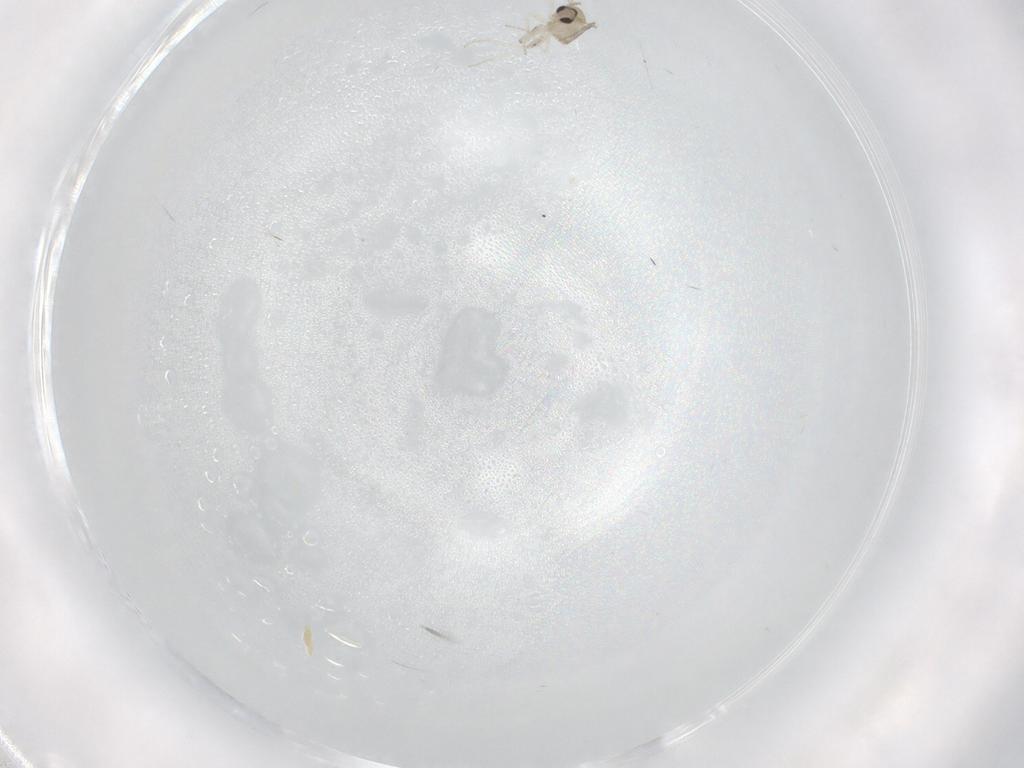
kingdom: Animalia
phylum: Arthropoda
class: Insecta
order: Diptera
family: Cecidomyiidae
